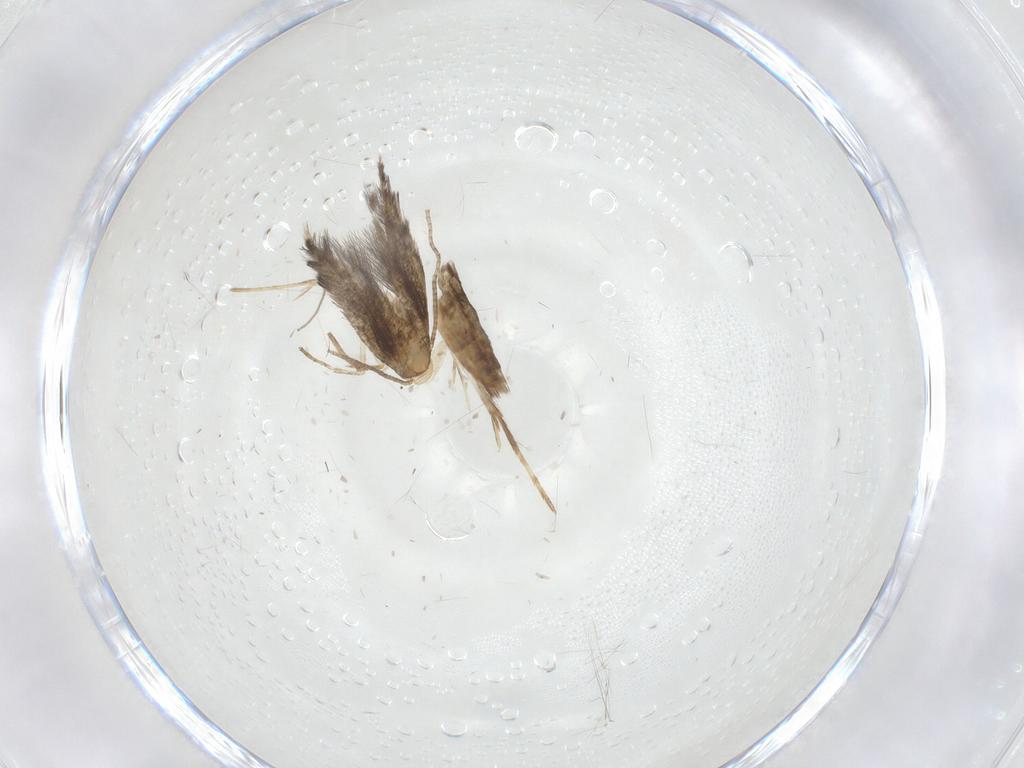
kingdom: Animalia
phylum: Arthropoda
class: Insecta
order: Lepidoptera
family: Gracillariidae
